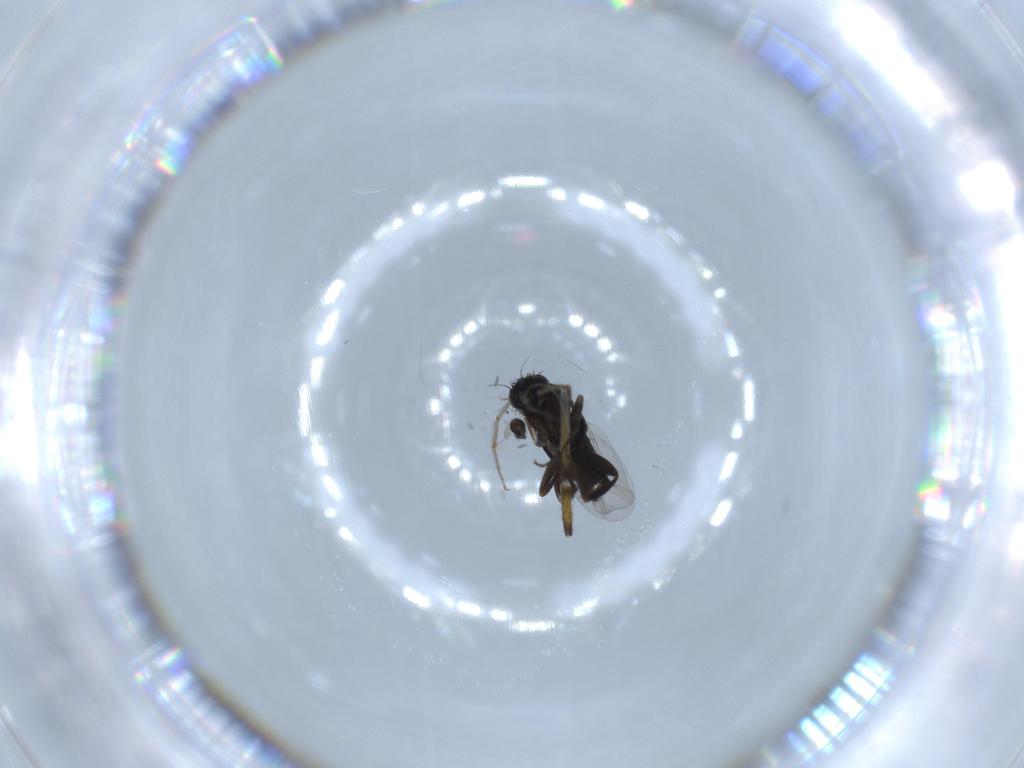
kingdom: Animalia
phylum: Arthropoda
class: Insecta
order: Diptera
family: Phoridae
